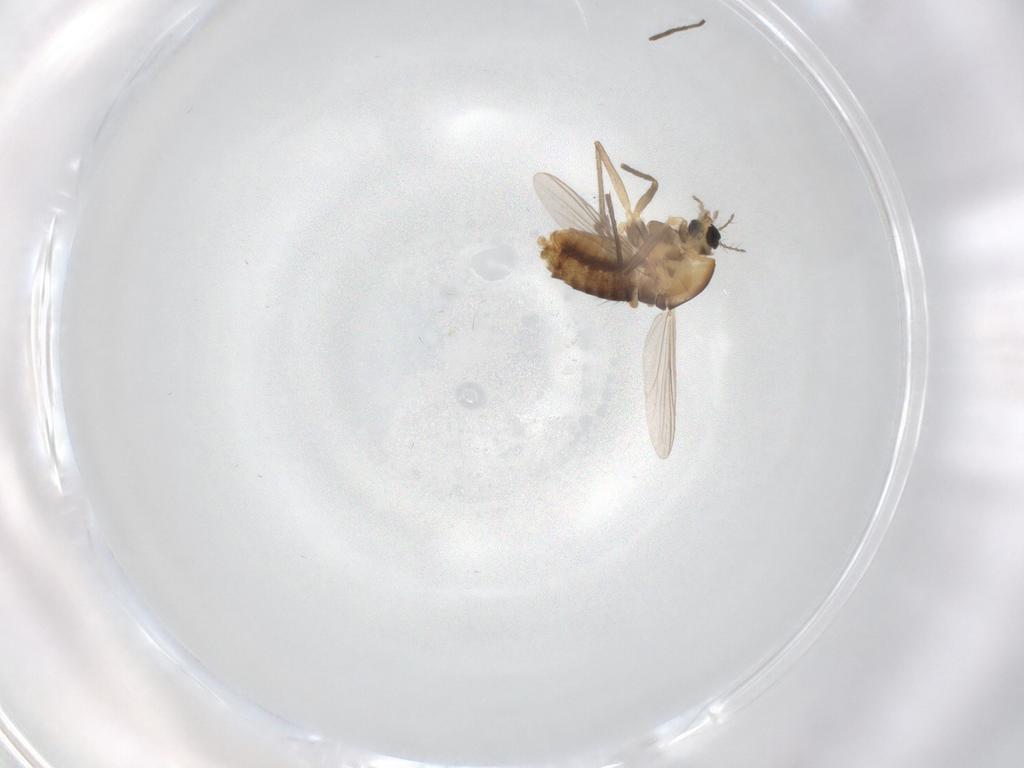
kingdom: Animalia
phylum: Arthropoda
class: Insecta
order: Diptera
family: Chironomidae
